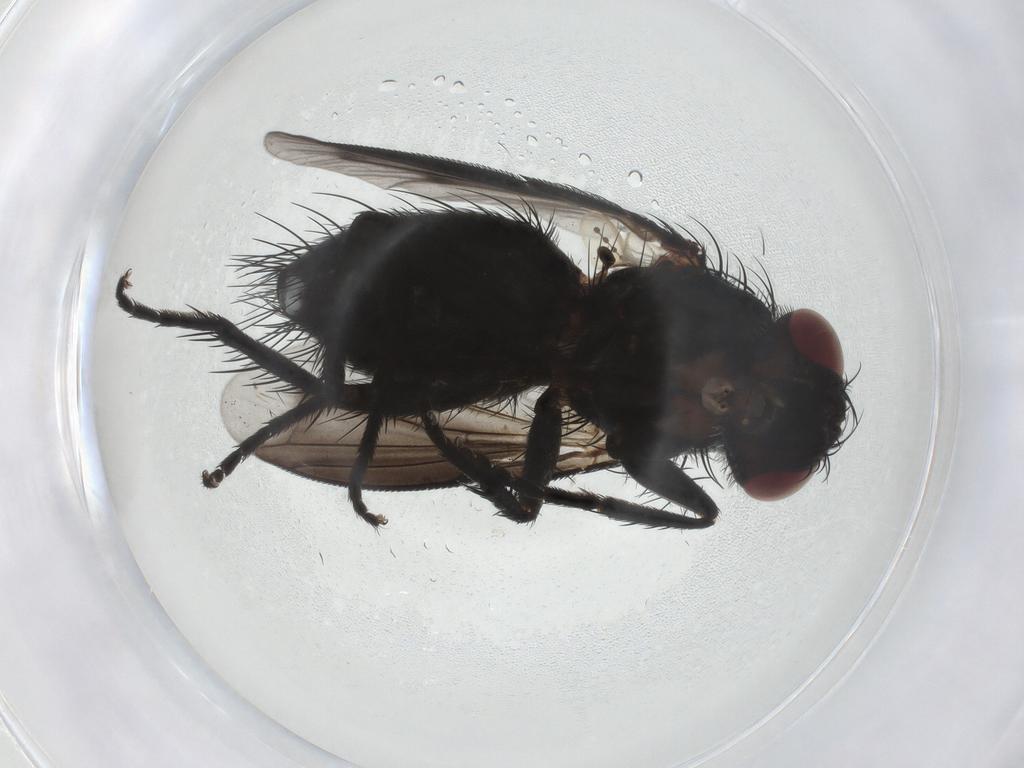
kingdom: Animalia
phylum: Arthropoda
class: Insecta
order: Diptera
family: Tachinidae
